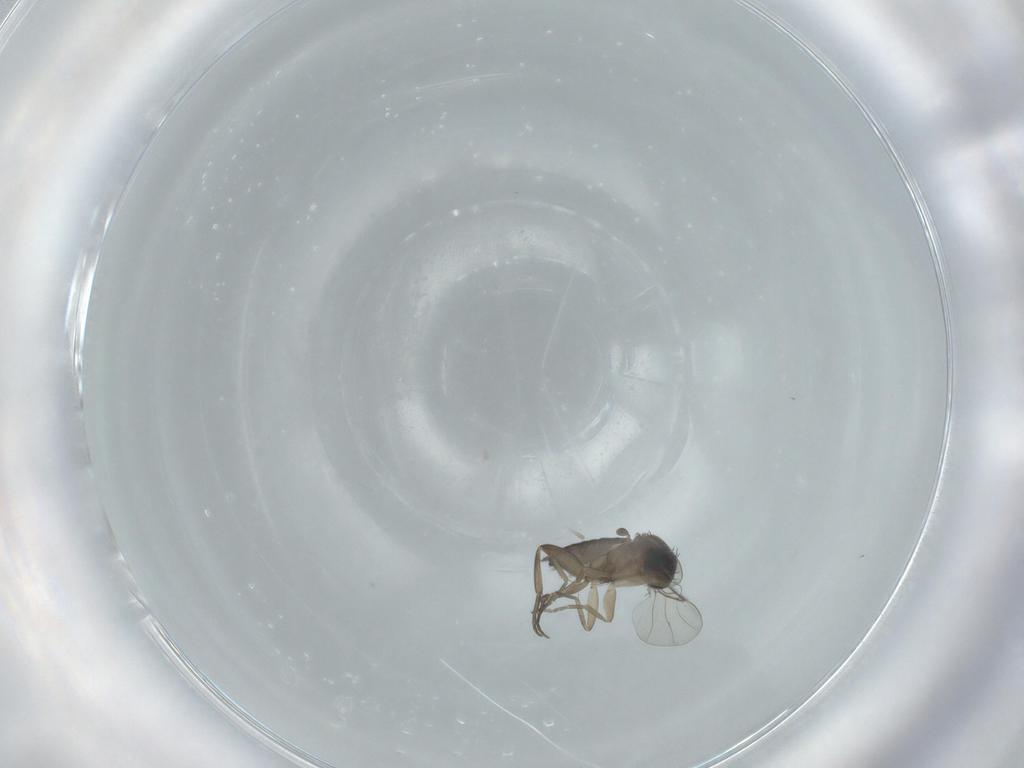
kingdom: Animalia
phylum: Arthropoda
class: Insecta
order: Diptera
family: Phoridae
